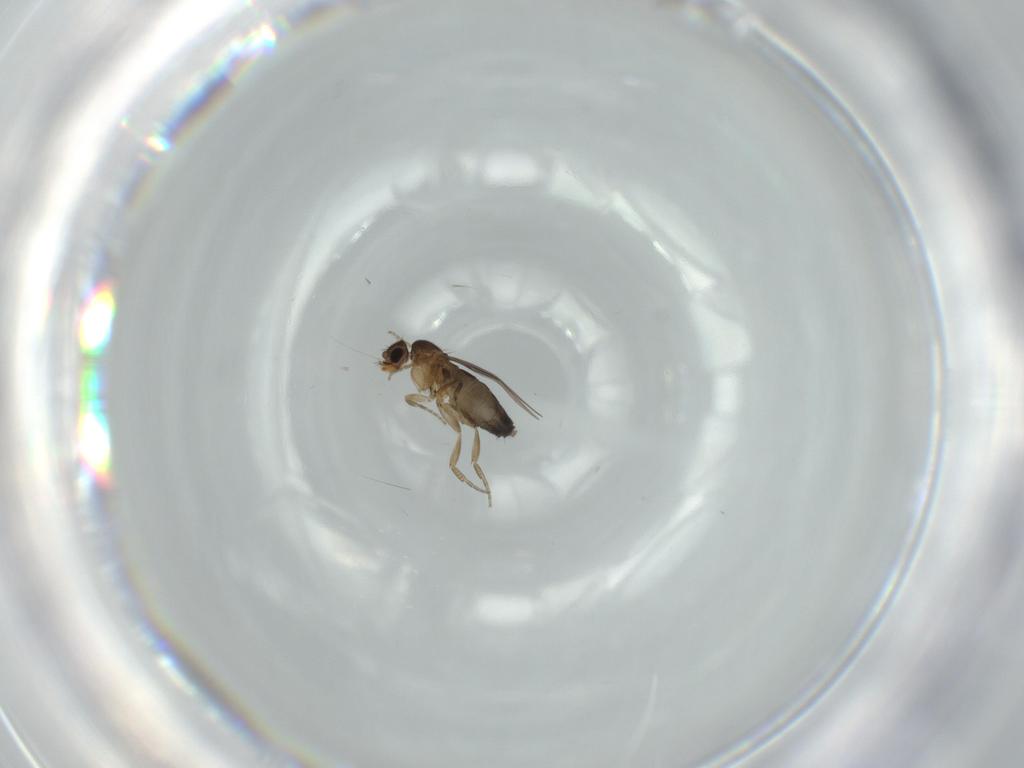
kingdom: Animalia
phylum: Arthropoda
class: Insecta
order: Diptera
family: Phoridae
